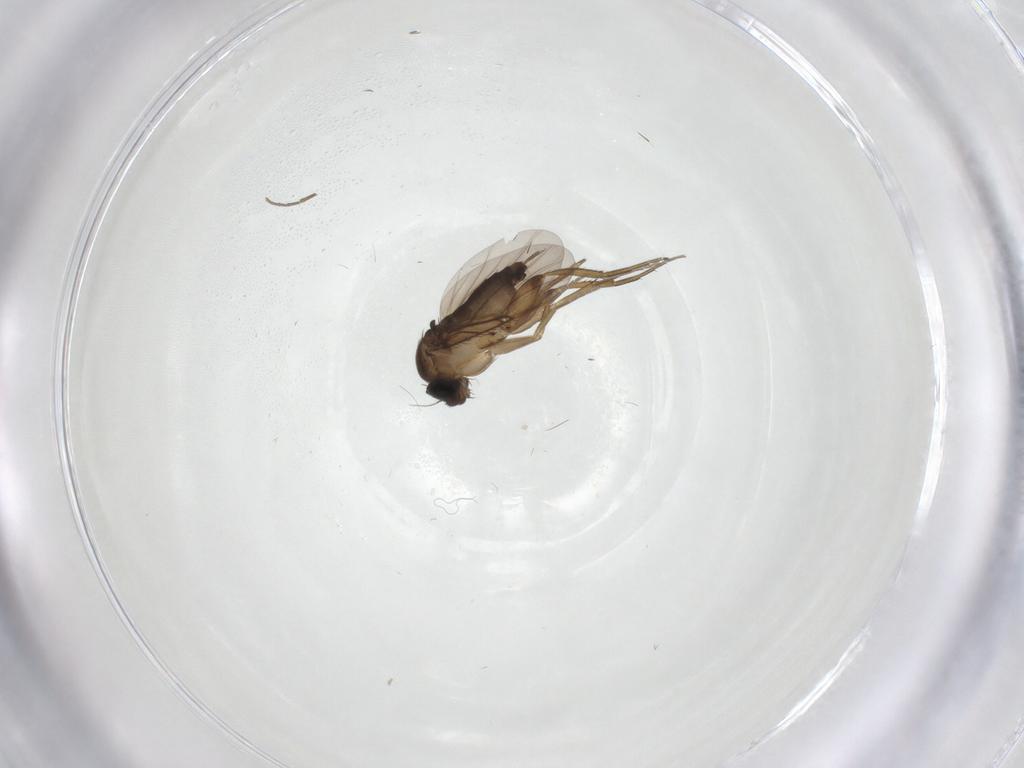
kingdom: Animalia
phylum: Arthropoda
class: Insecta
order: Diptera
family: Phoridae
